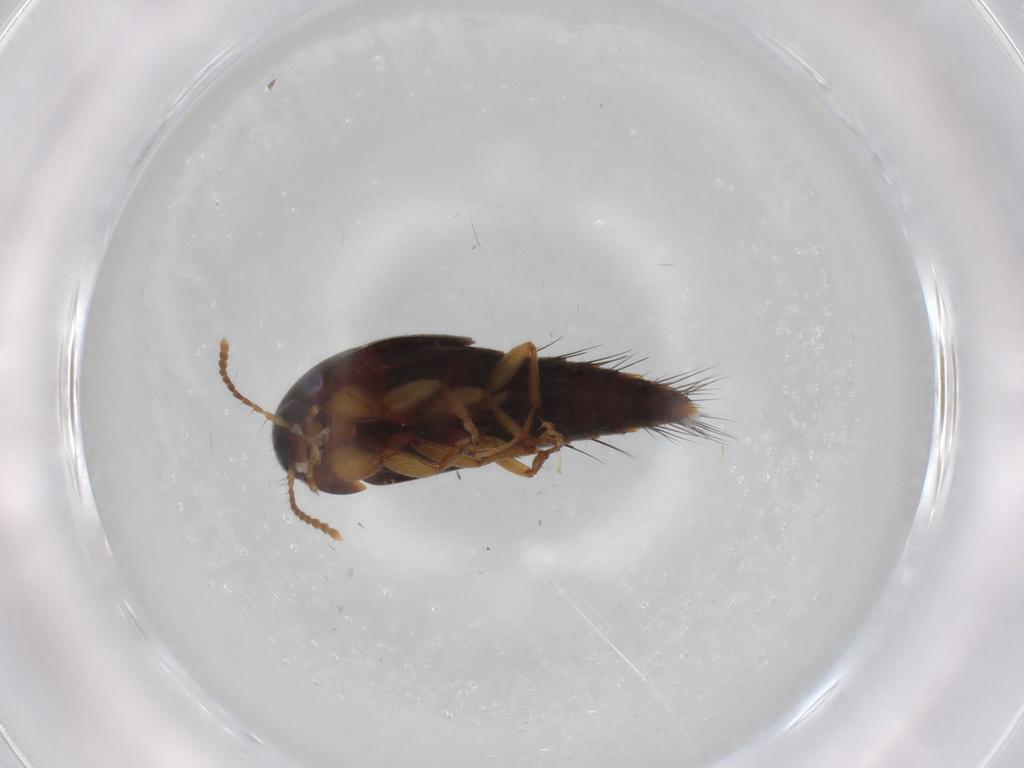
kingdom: Animalia
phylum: Arthropoda
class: Insecta
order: Coleoptera
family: Staphylinidae
